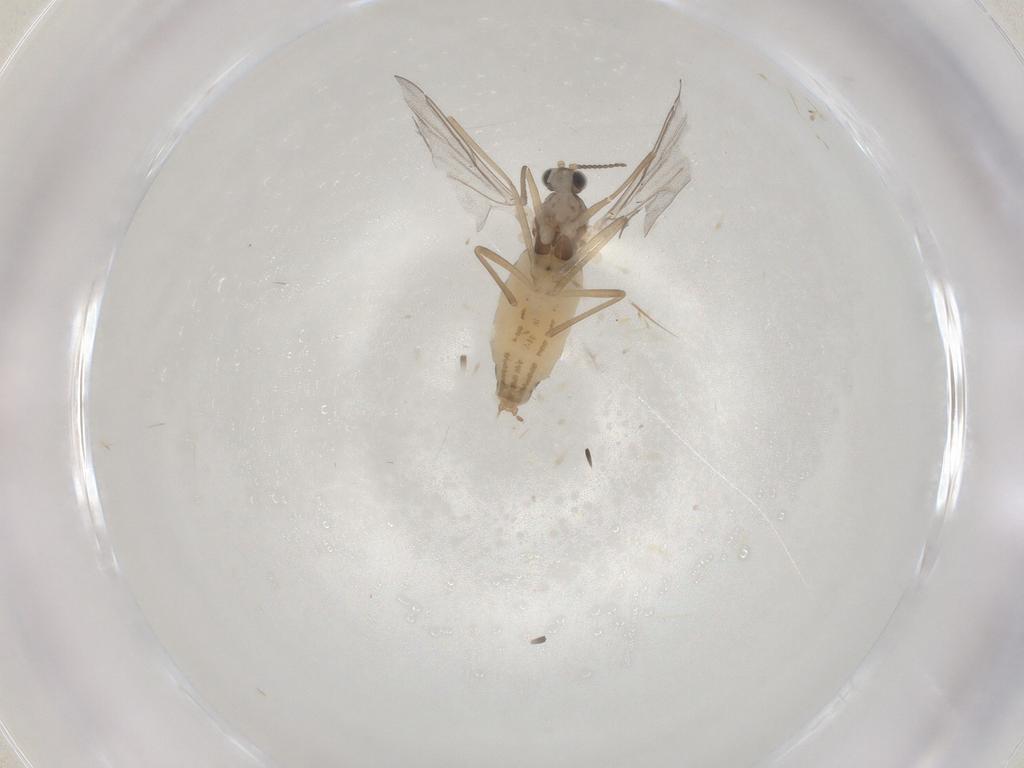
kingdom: Animalia
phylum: Arthropoda
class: Insecta
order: Diptera
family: Cecidomyiidae
